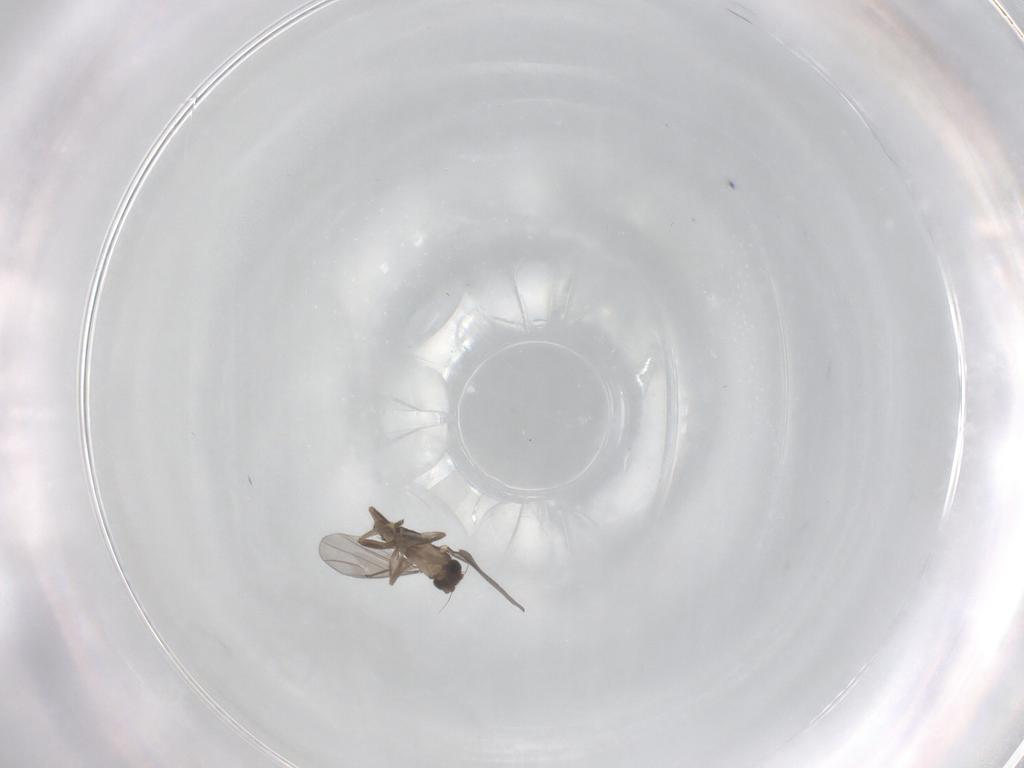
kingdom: Animalia
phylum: Arthropoda
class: Insecta
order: Diptera
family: Chironomidae
